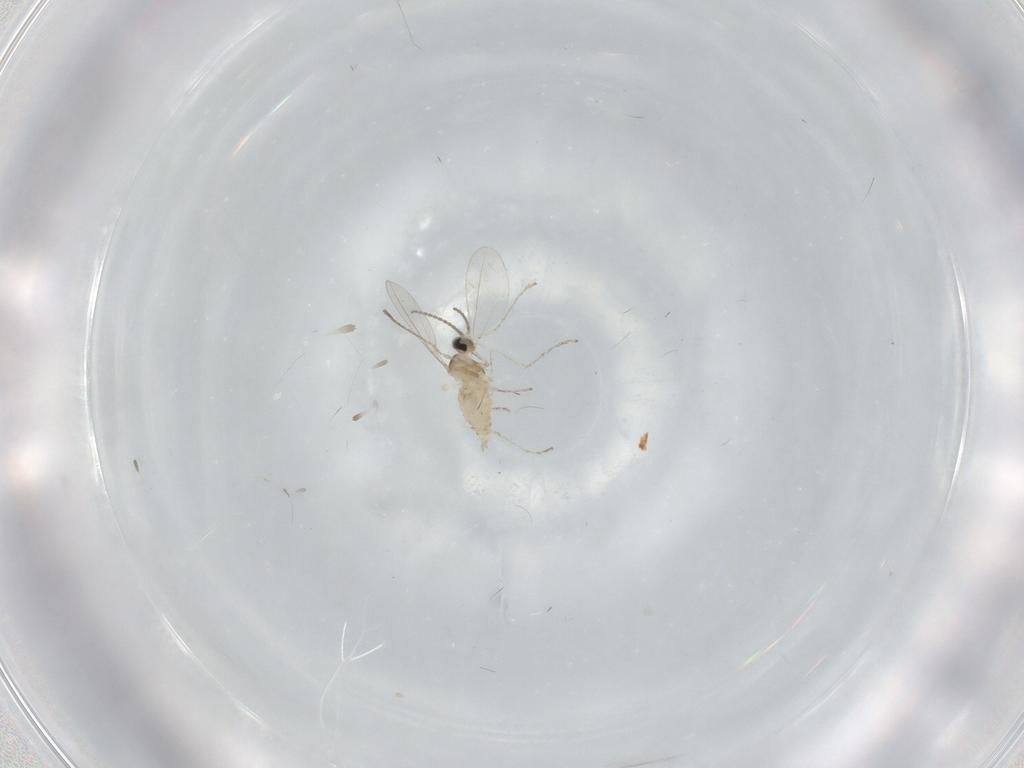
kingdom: Animalia
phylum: Arthropoda
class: Insecta
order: Diptera
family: Cecidomyiidae
